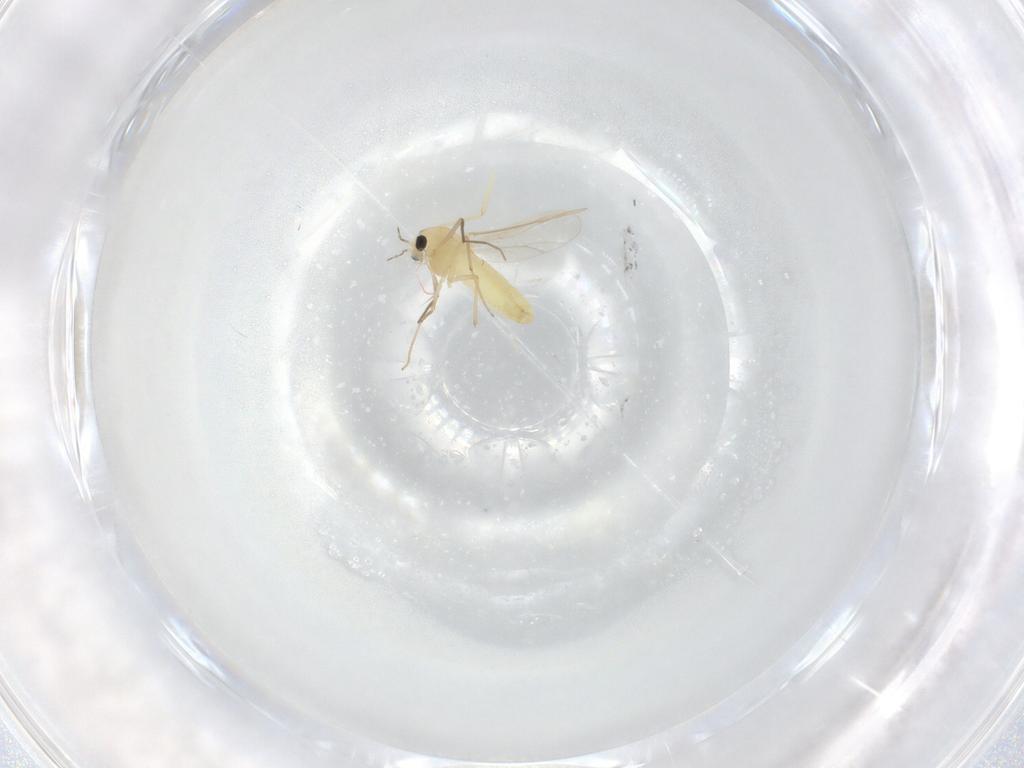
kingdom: Animalia
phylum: Arthropoda
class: Insecta
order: Diptera
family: Chironomidae
